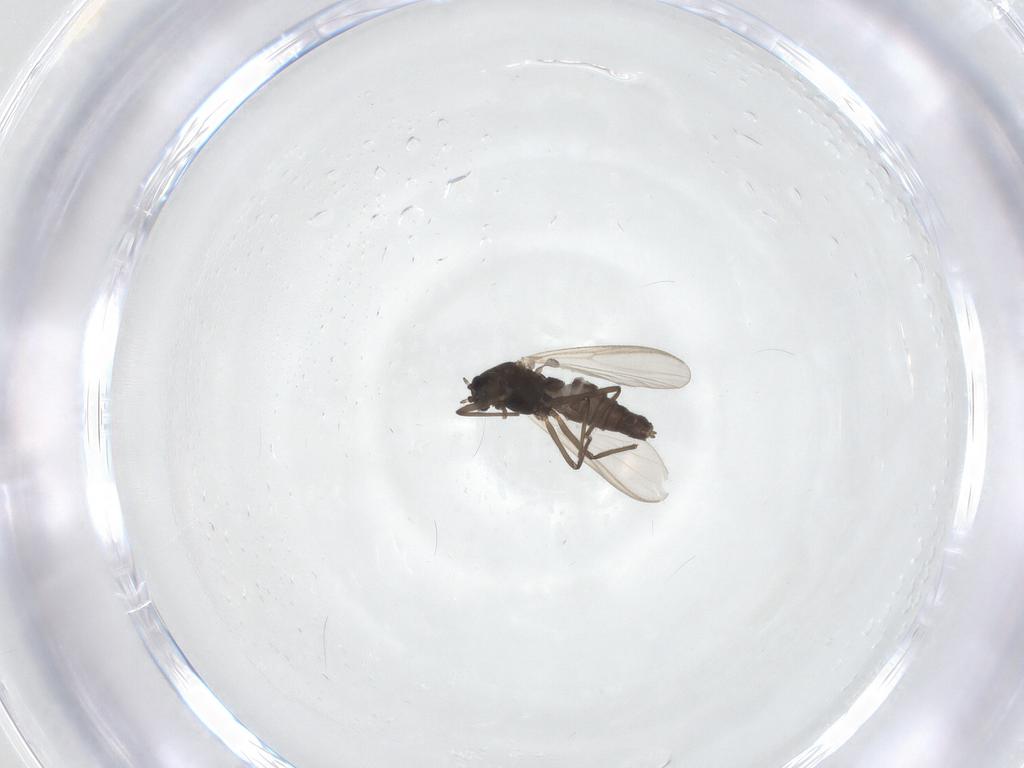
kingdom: Animalia
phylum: Arthropoda
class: Insecta
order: Diptera
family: Chironomidae
